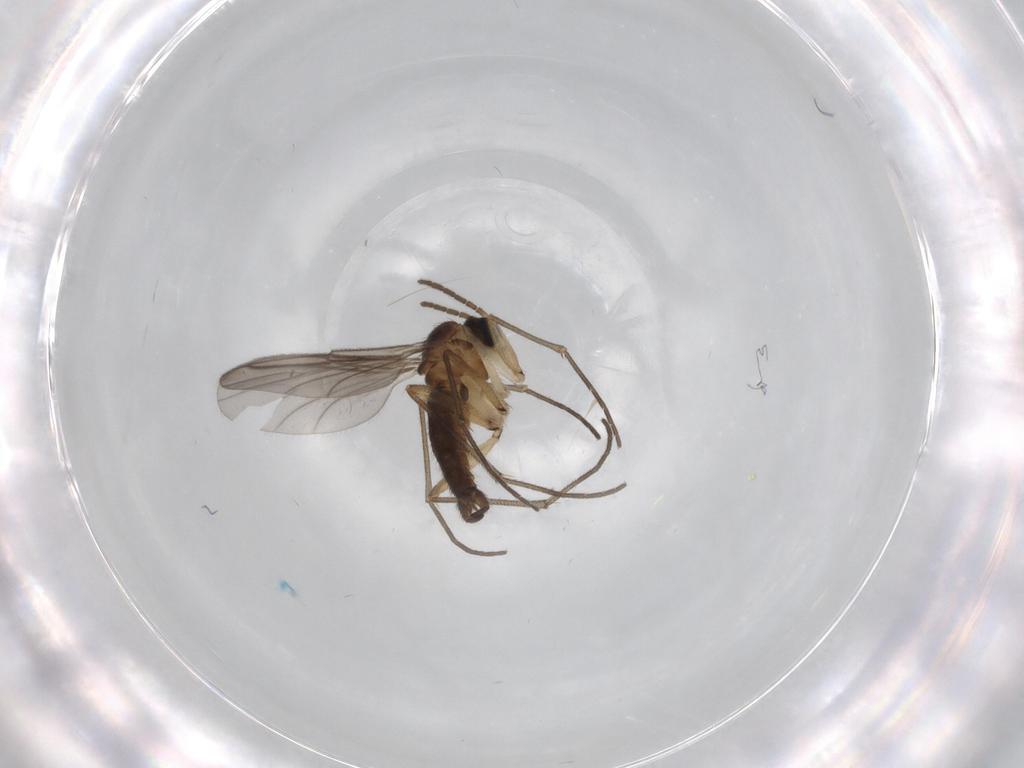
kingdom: Animalia
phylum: Arthropoda
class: Insecta
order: Diptera
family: Sciaridae
